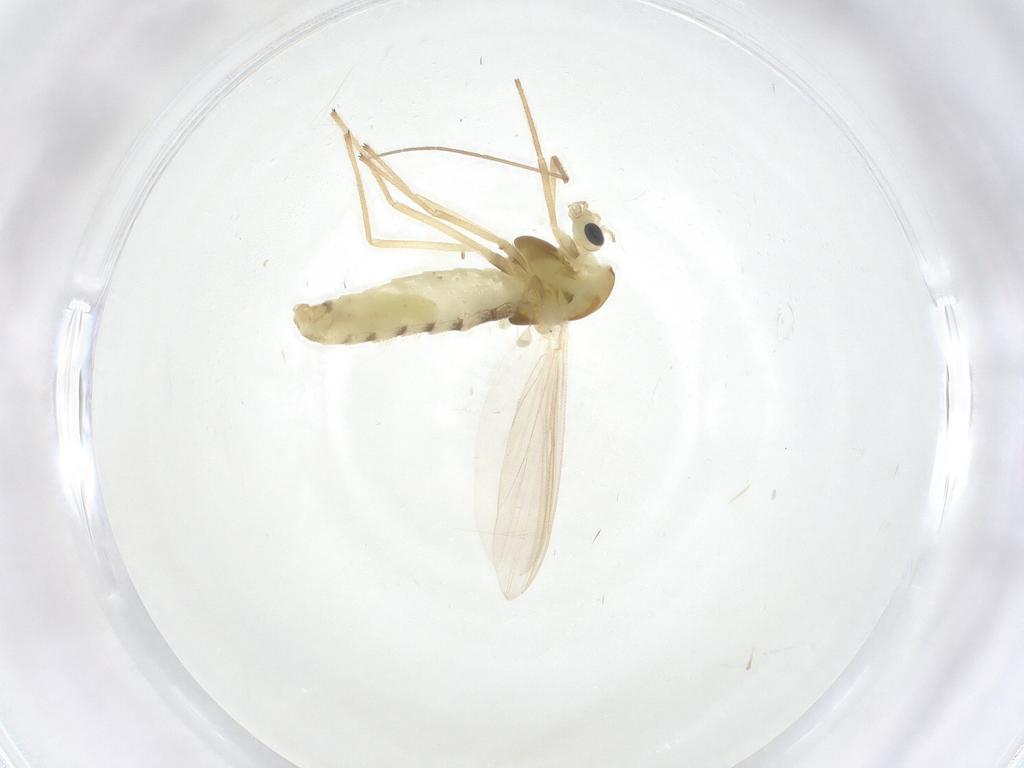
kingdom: Animalia
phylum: Arthropoda
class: Insecta
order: Diptera
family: Chironomidae
